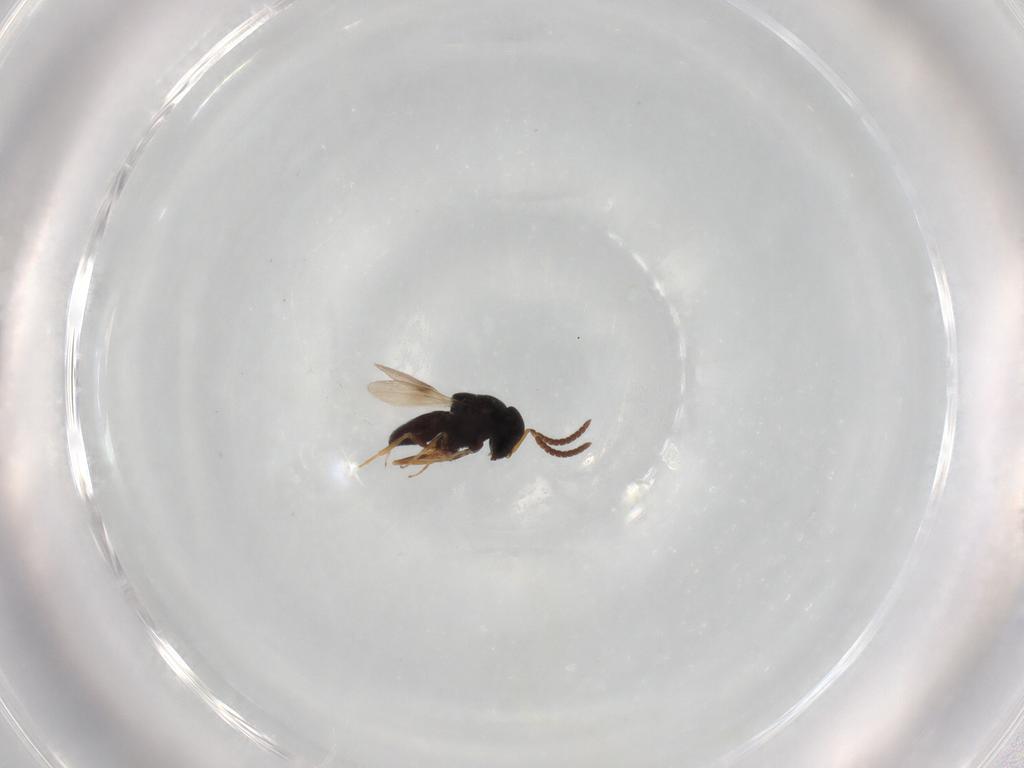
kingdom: Animalia
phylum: Arthropoda
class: Insecta
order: Hymenoptera
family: Scelionidae
